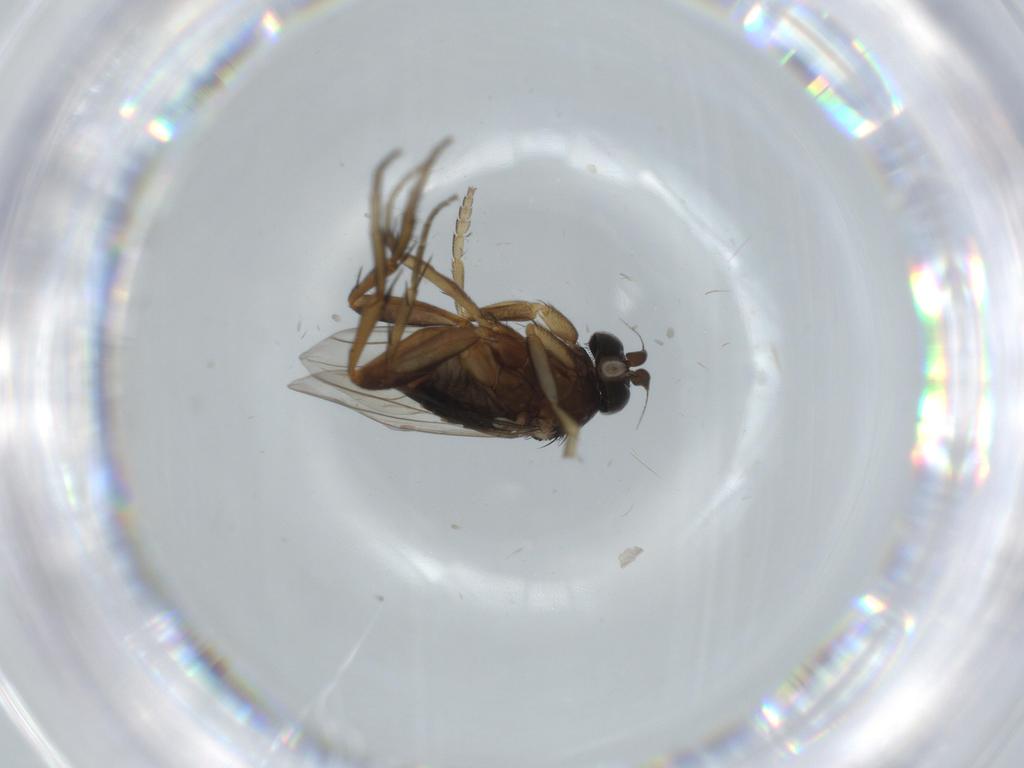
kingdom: Animalia
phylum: Arthropoda
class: Insecta
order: Diptera
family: Phoridae
